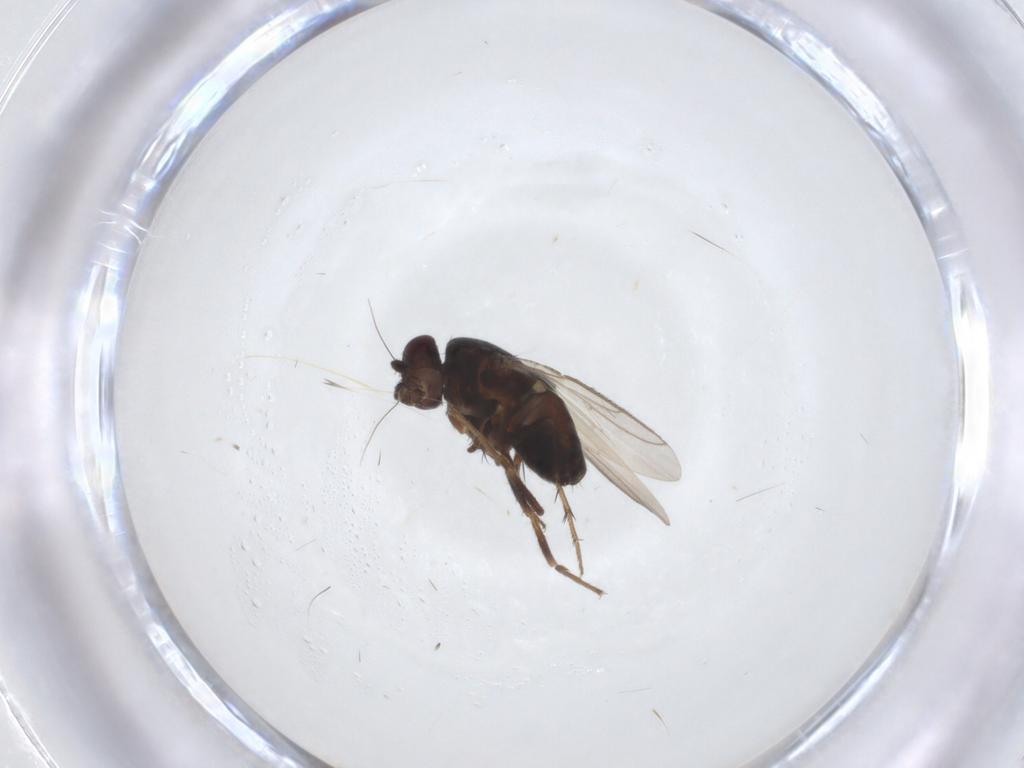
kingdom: Animalia
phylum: Arthropoda
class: Insecta
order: Diptera
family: Sphaeroceridae
